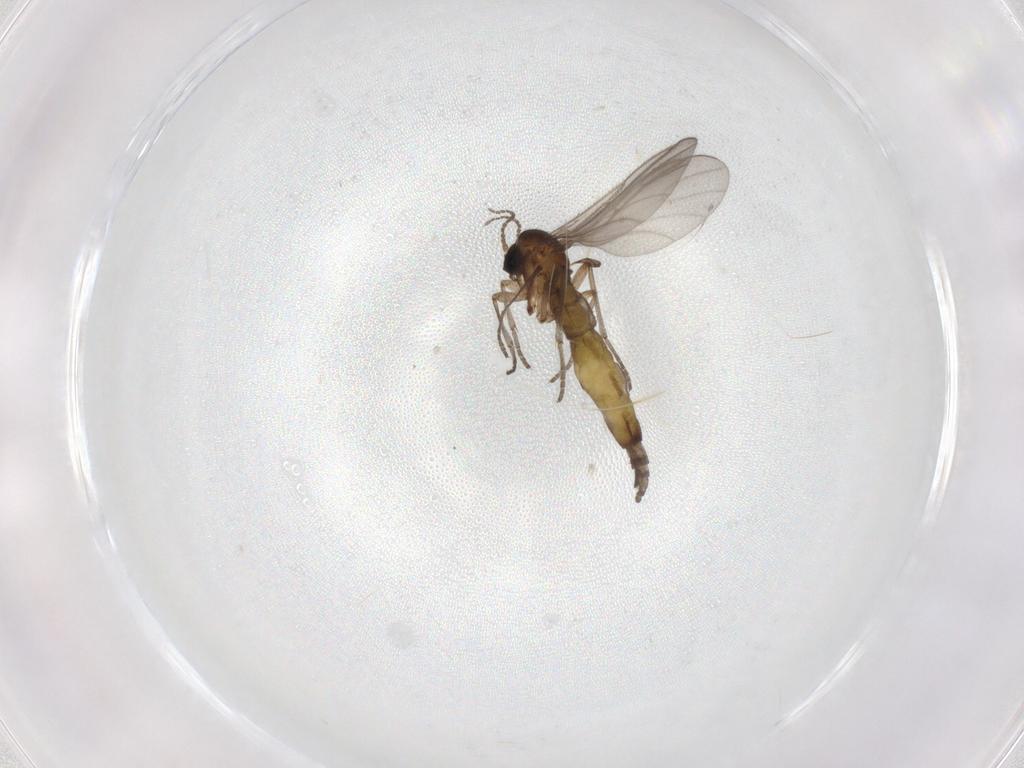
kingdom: Animalia
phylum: Arthropoda
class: Insecta
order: Diptera
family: Sciaridae
